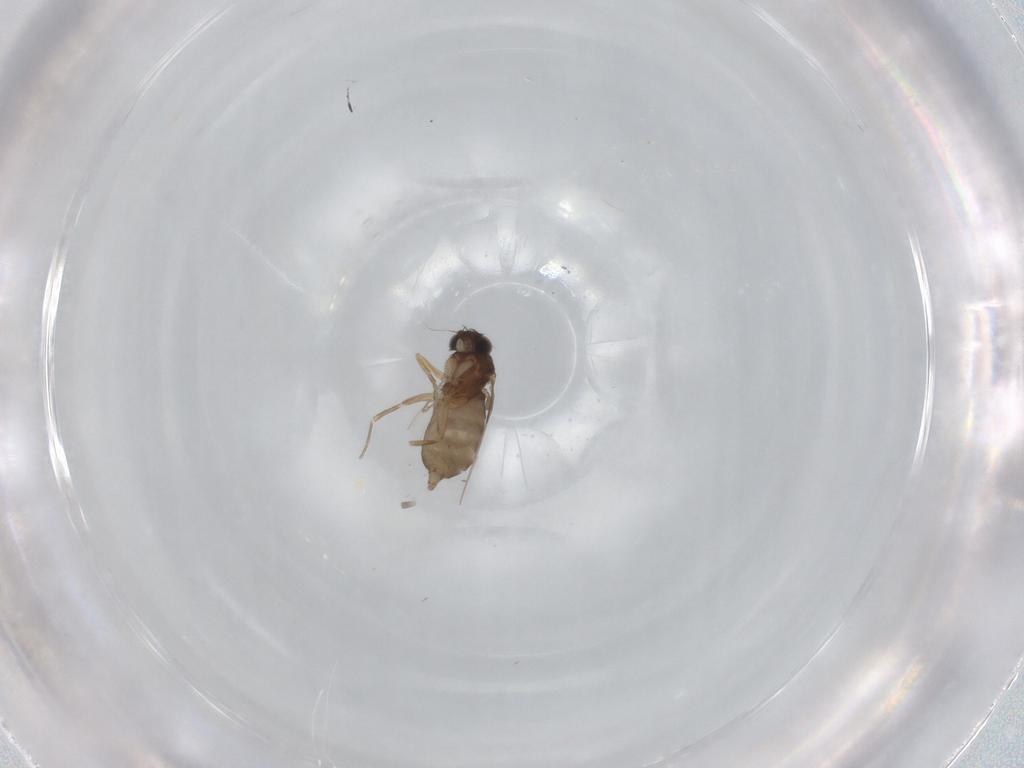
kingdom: Animalia
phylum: Arthropoda
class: Insecta
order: Diptera
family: Phoridae
